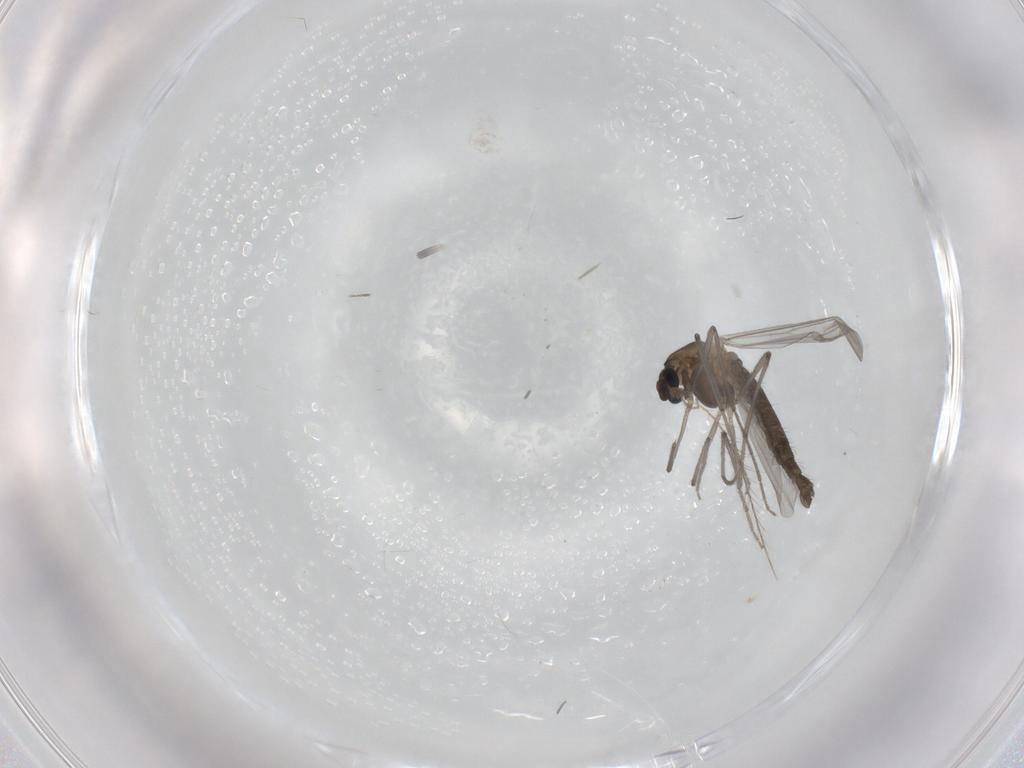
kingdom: Animalia
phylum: Arthropoda
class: Insecta
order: Diptera
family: Chironomidae
